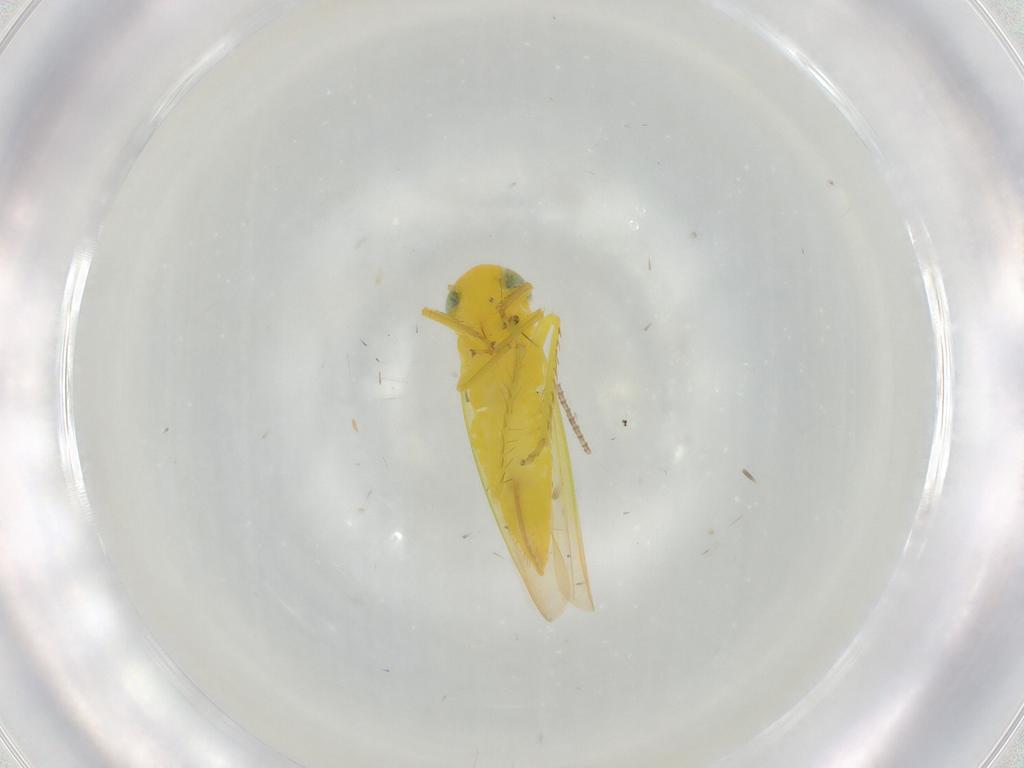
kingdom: Animalia
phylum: Arthropoda
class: Insecta
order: Hemiptera
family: Cicadellidae
